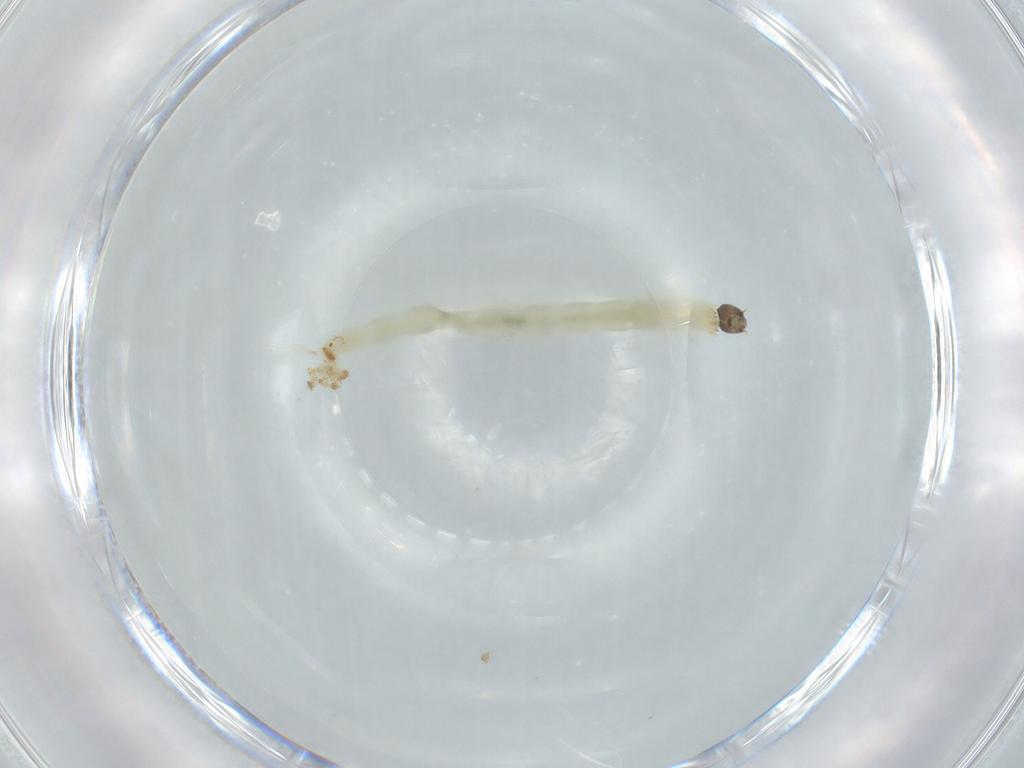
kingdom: Animalia
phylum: Arthropoda
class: Insecta
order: Diptera
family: Chironomidae
